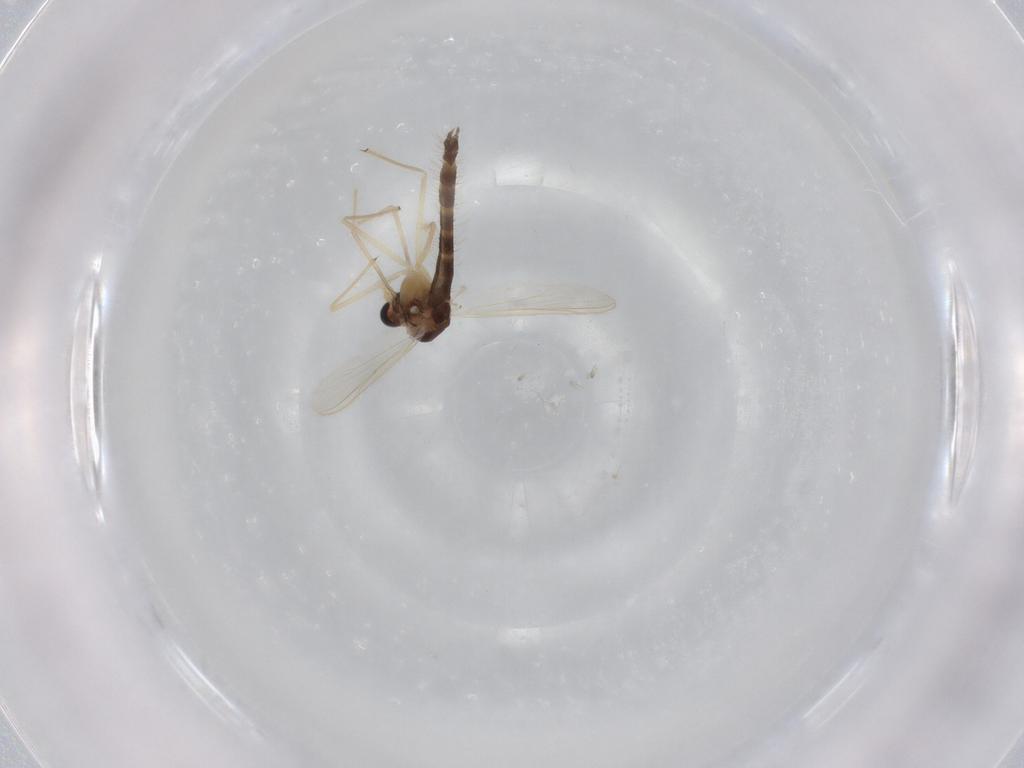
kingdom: Animalia
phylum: Arthropoda
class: Insecta
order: Diptera
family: Chironomidae
